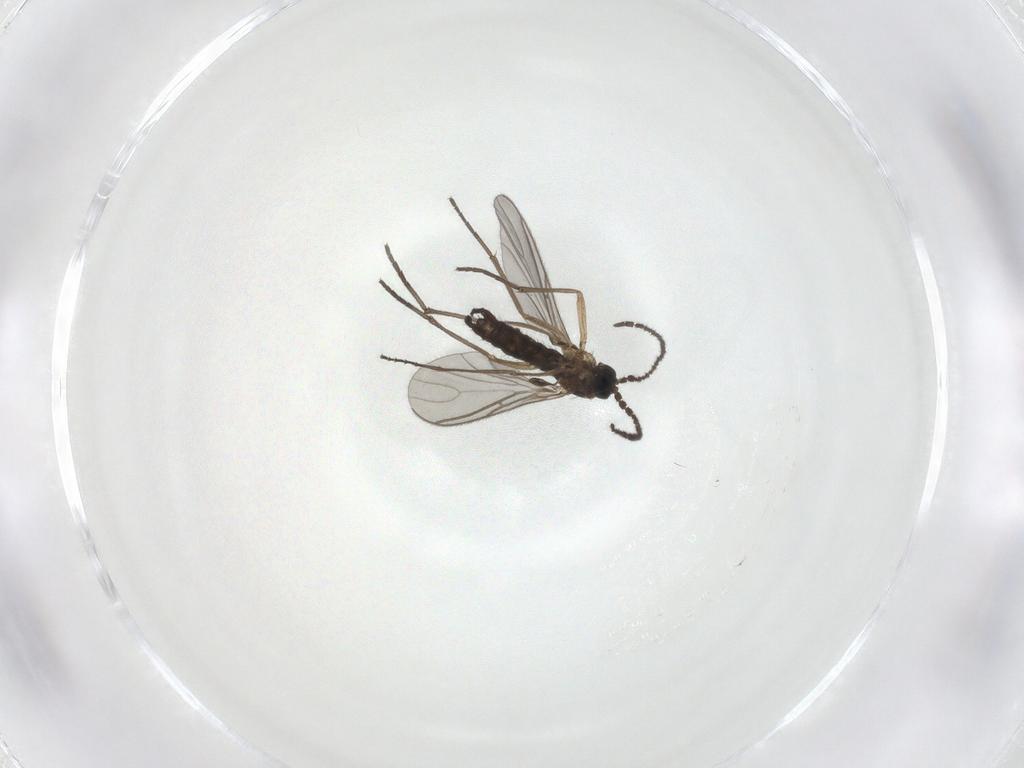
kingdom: Animalia
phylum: Arthropoda
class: Insecta
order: Diptera
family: Sciaridae
